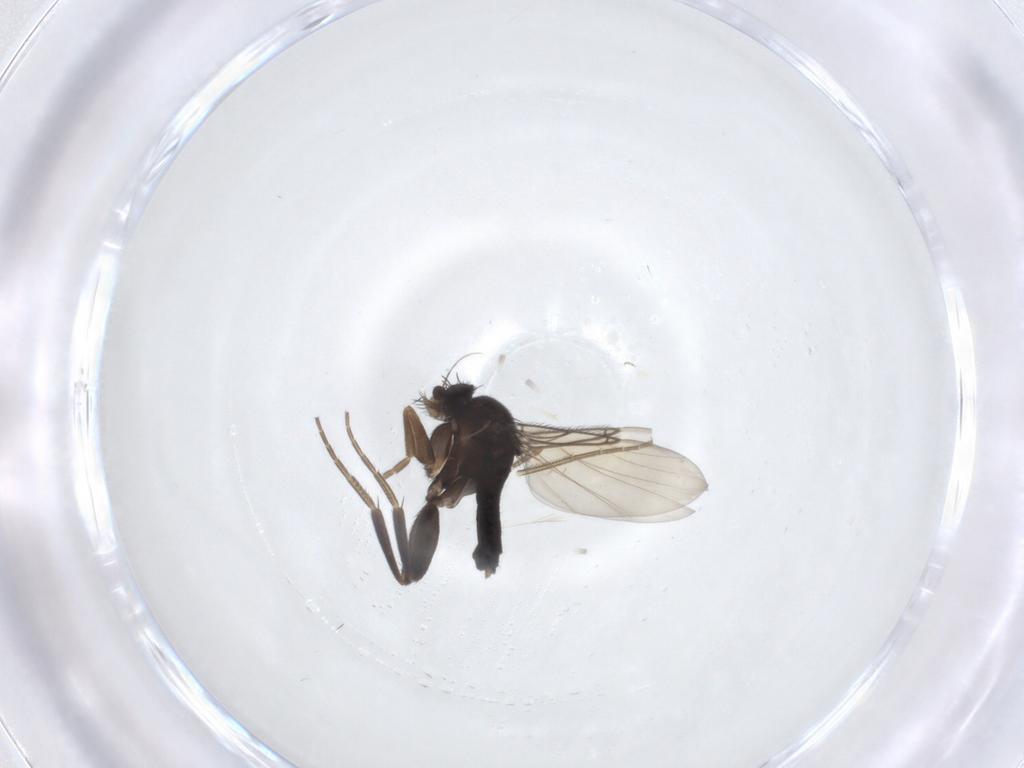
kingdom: Animalia
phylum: Arthropoda
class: Insecta
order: Diptera
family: Phoridae
